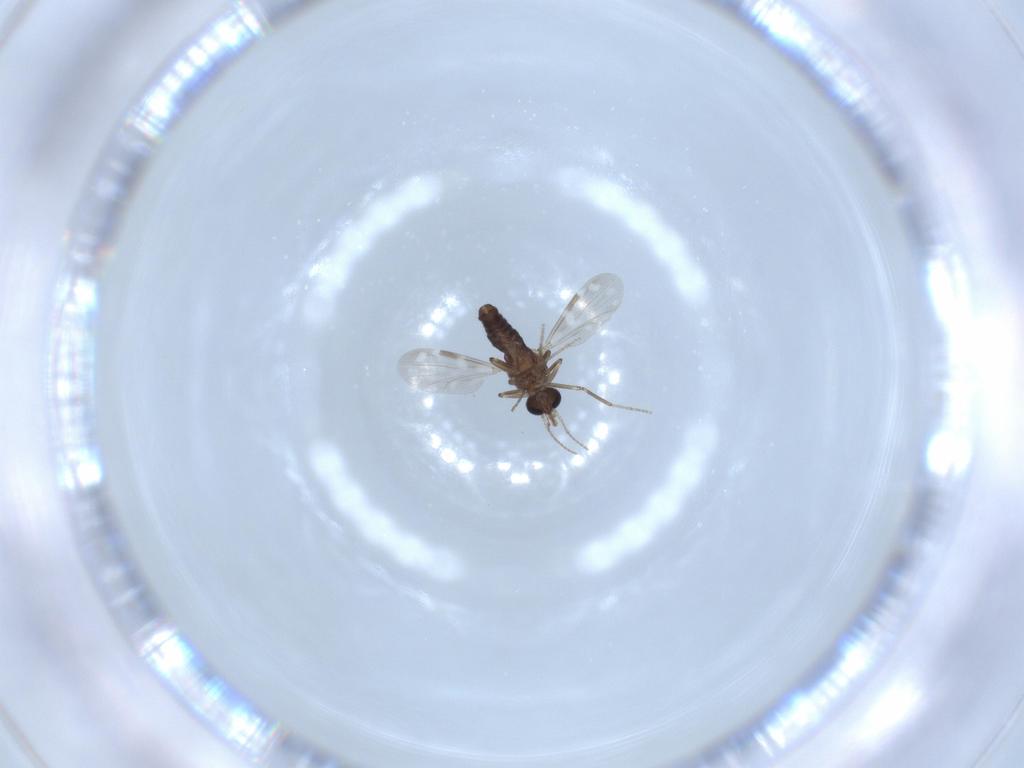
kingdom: Animalia
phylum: Arthropoda
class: Insecta
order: Diptera
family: Ceratopogonidae
